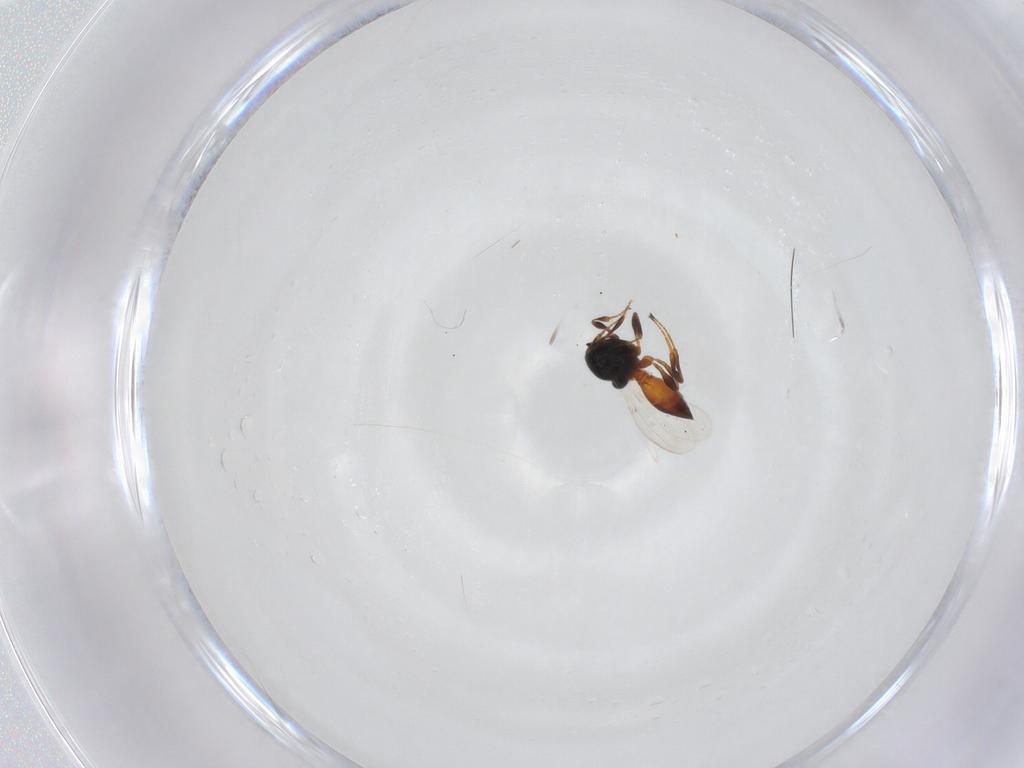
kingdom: Animalia
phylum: Arthropoda
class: Insecta
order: Hymenoptera
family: Platygastridae
